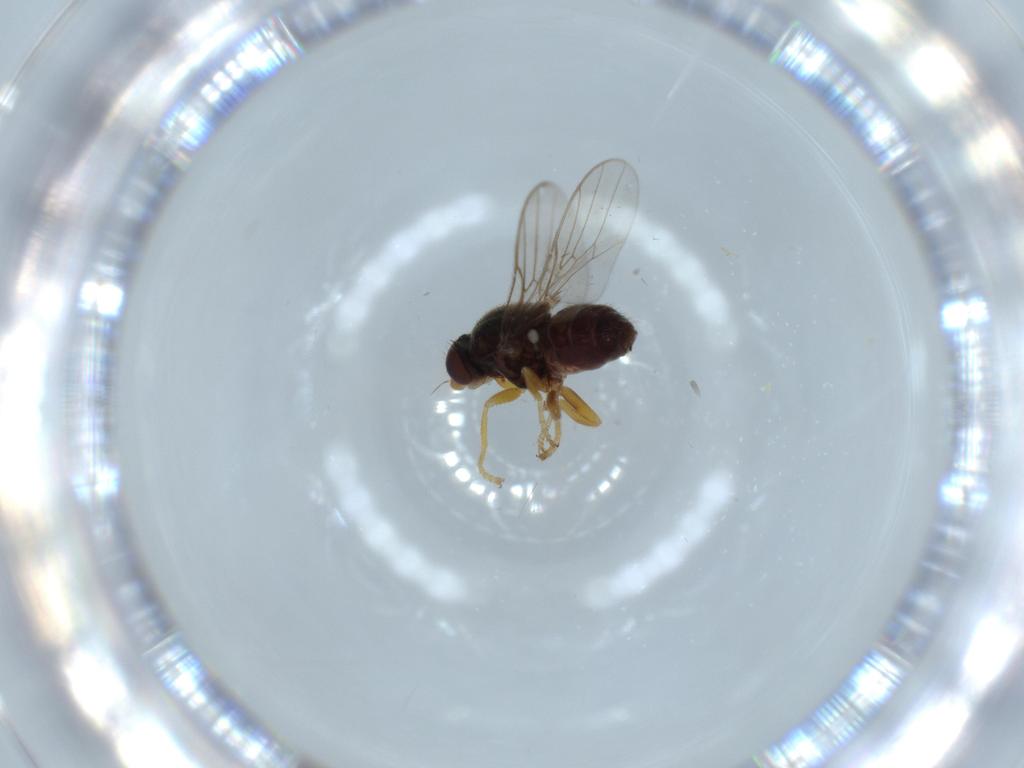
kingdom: Animalia
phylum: Arthropoda
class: Insecta
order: Diptera
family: Chloropidae
